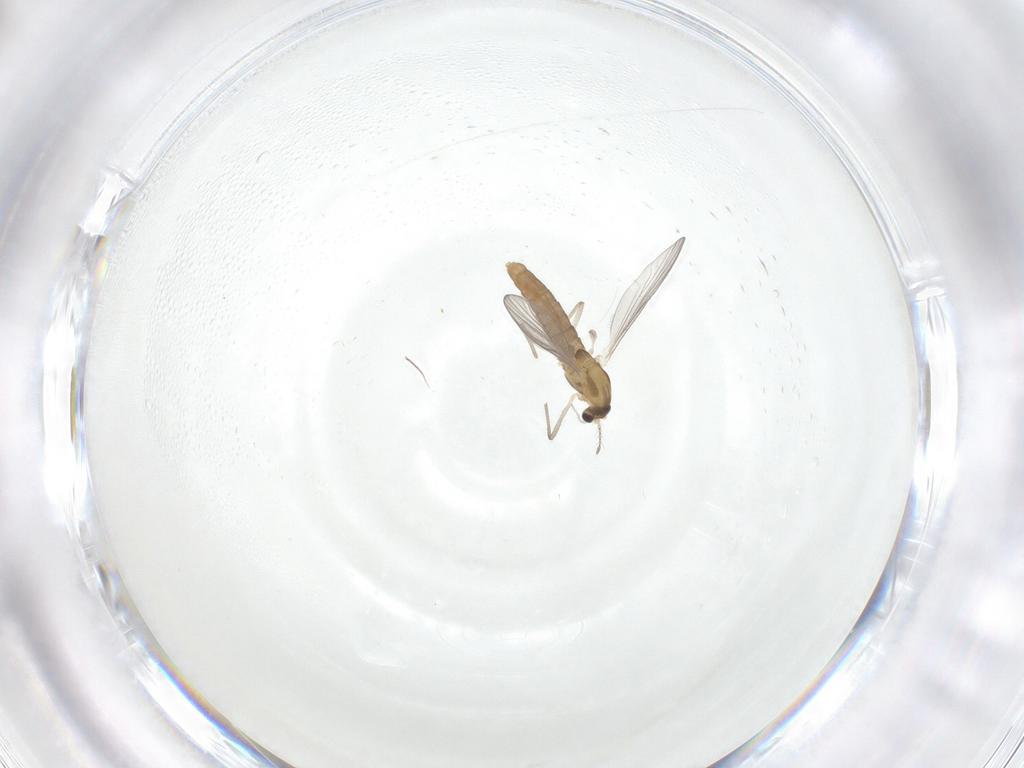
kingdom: Animalia
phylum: Arthropoda
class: Insecta
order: Diptera
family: Chironomidae
